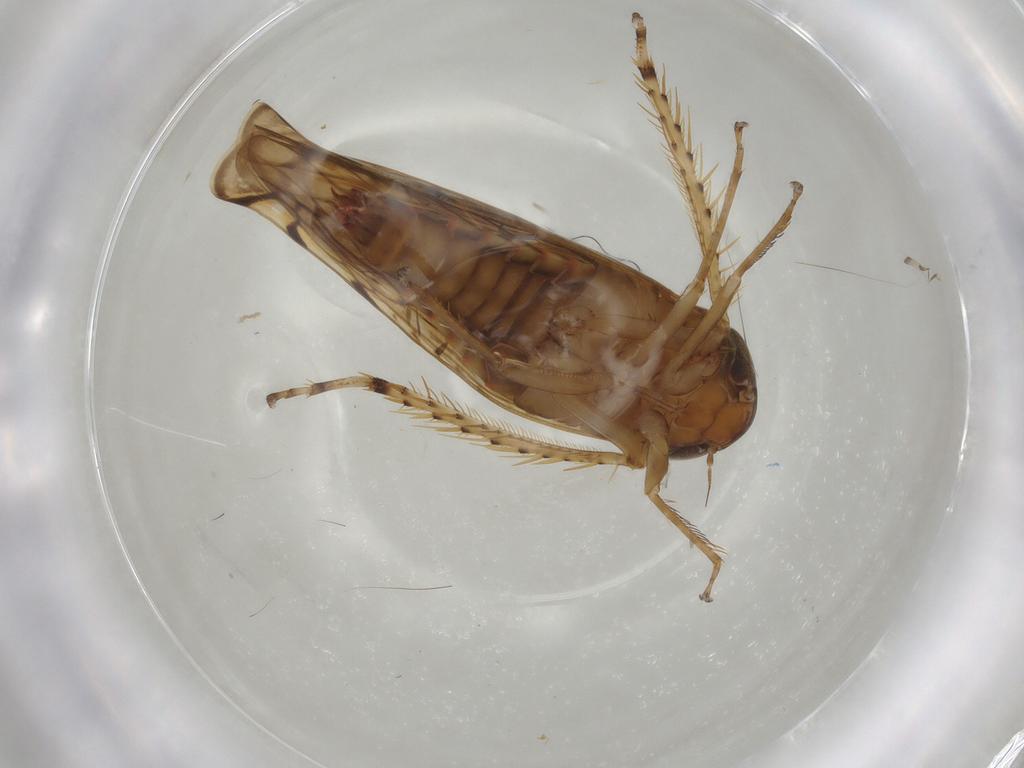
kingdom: Animalia
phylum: Arthropoda
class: Insecta
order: Hemiptera
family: Cicadellidae
